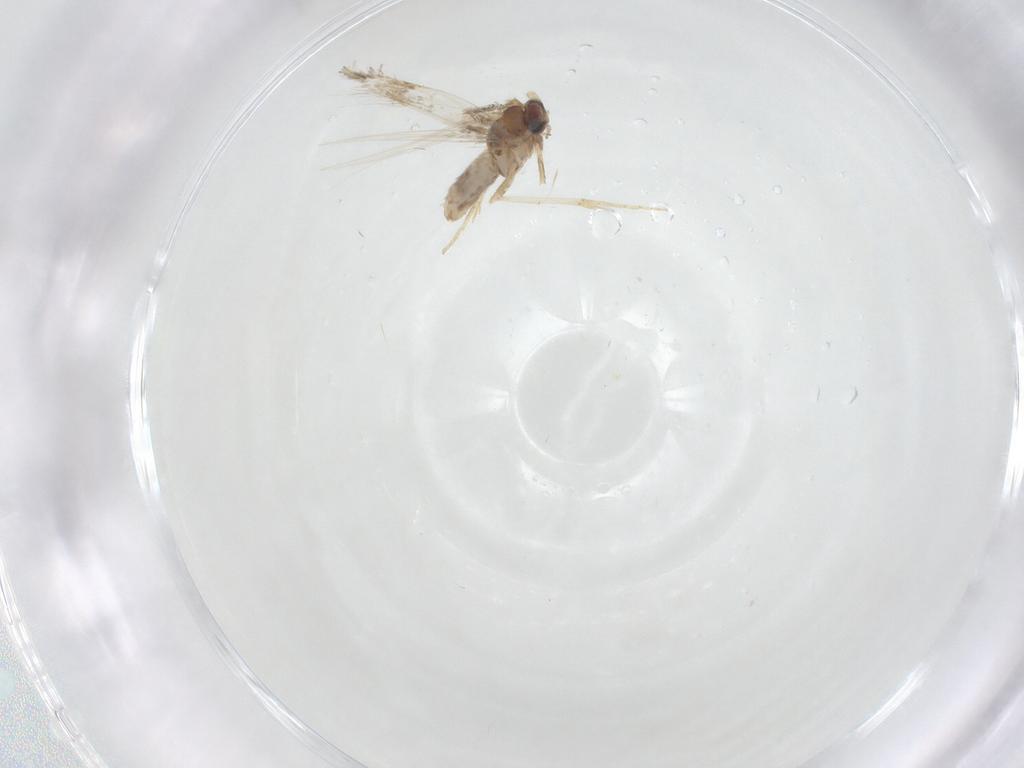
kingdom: Animalia
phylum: Arthropoda
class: Insecta
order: Lepidoptera
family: Nepticulidae
